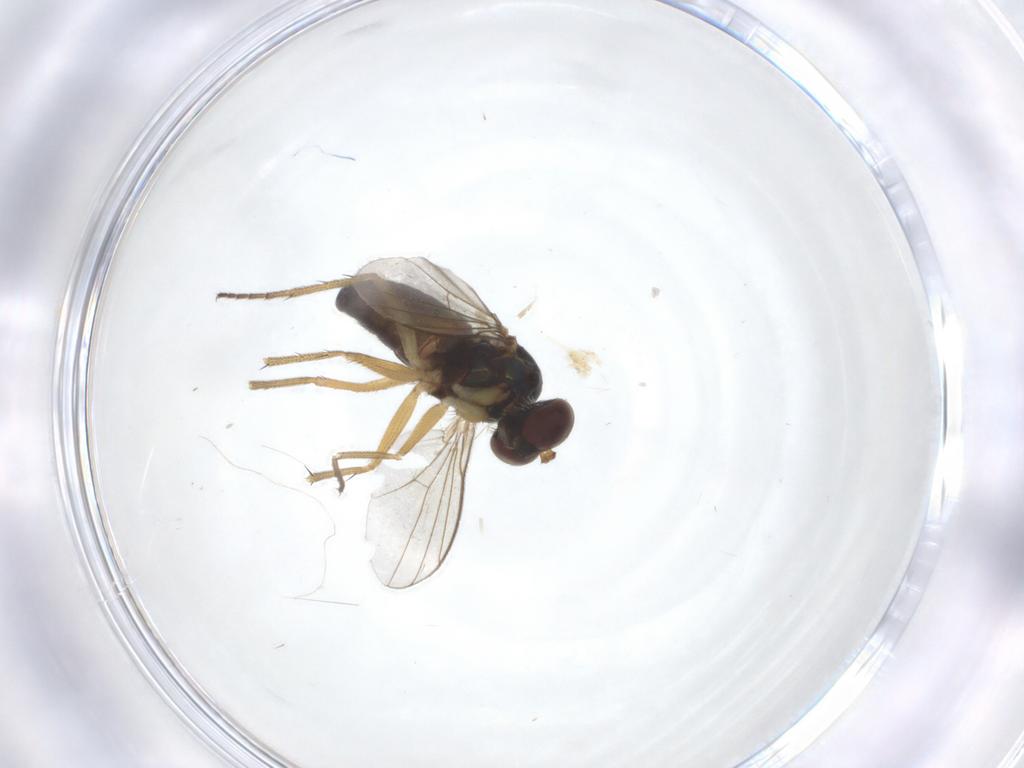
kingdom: Animalia
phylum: Arthropoda
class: Insecta
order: Diptera
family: Dolichopodidae
